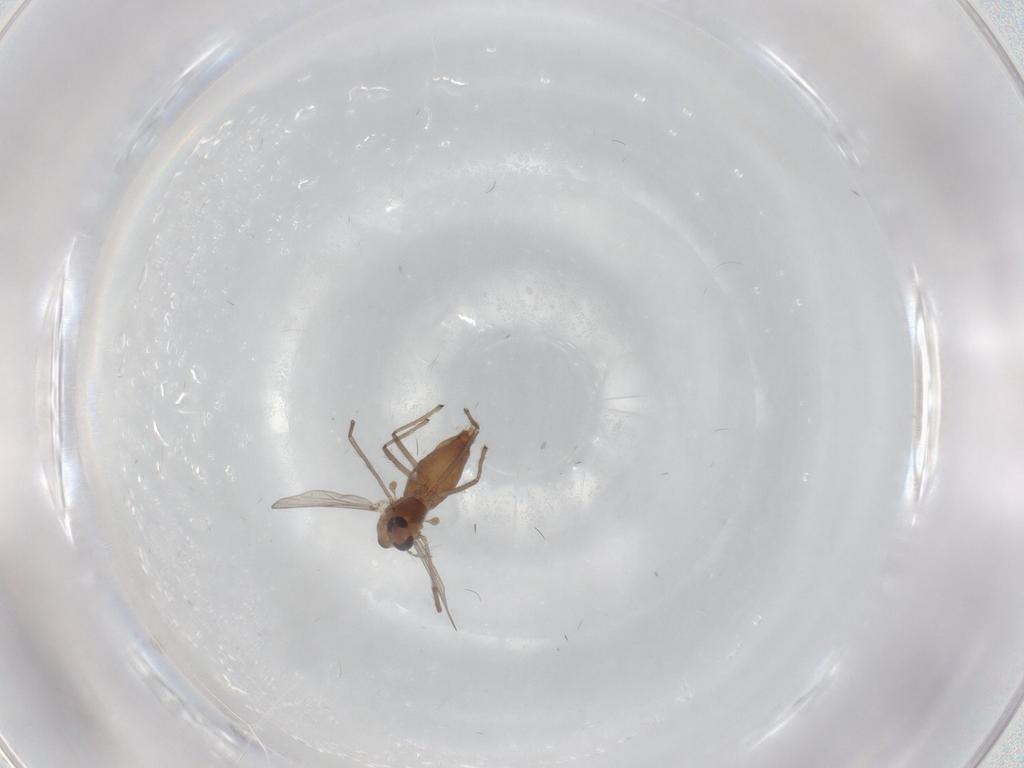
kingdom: Animalia
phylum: Arthropoda
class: Insecta
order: Diptera
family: Chironomidae
